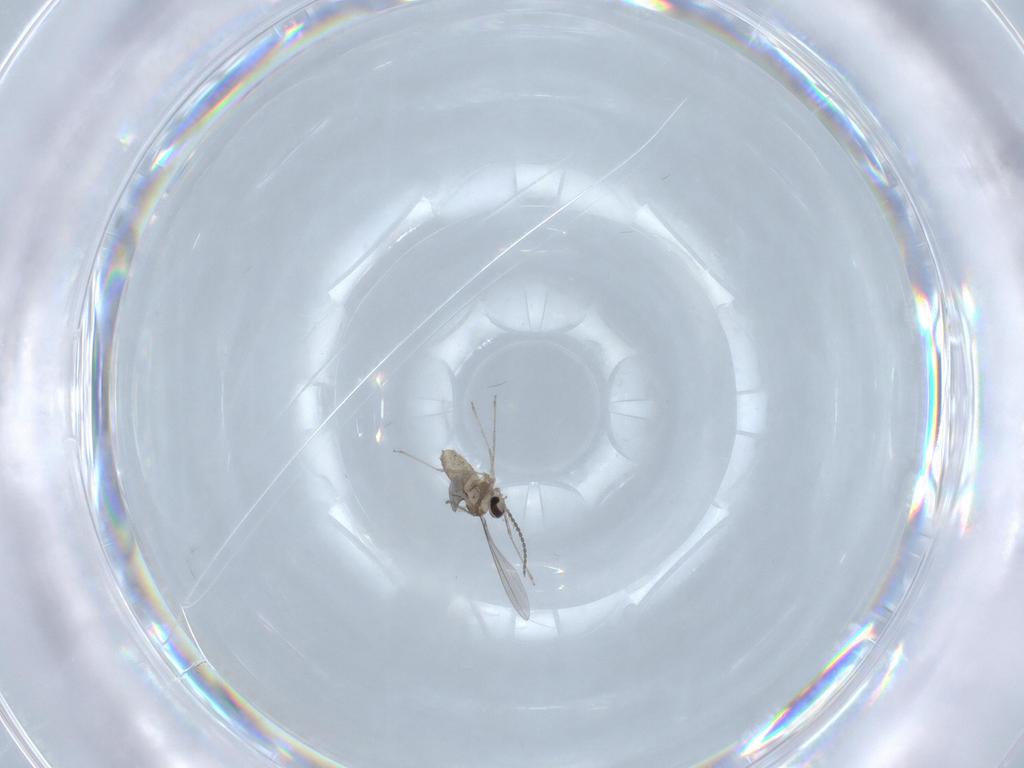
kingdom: Animalia
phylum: Arthropoda
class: Insecta
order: Diptera
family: Cecidomyiidae
